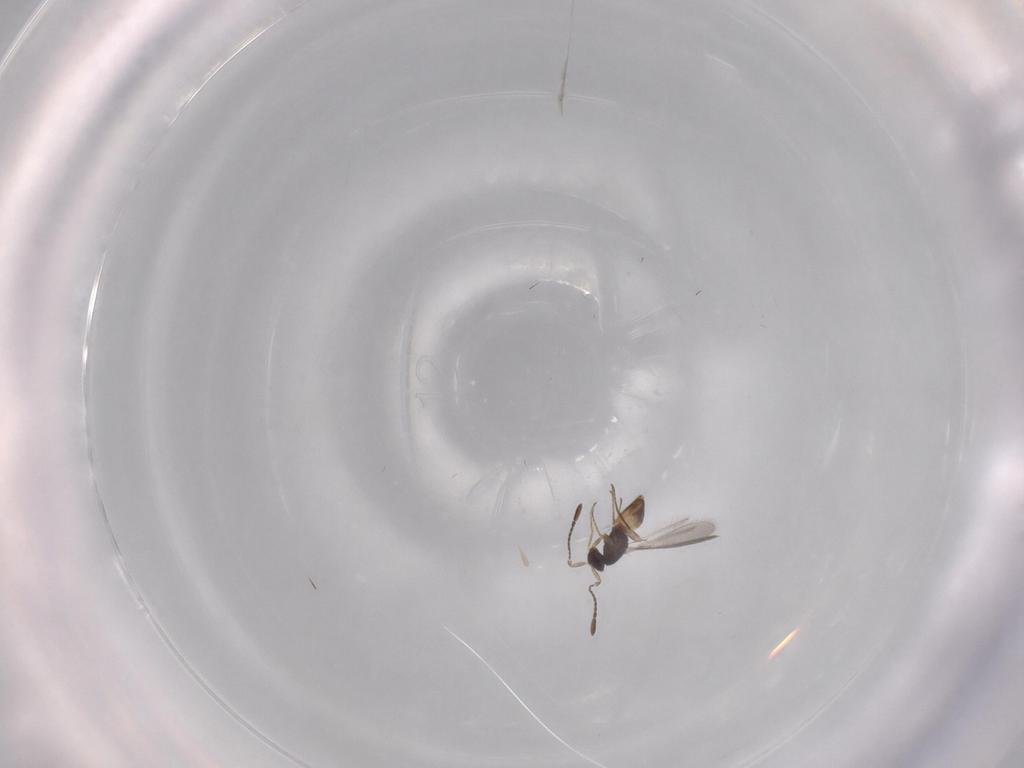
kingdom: Animalia
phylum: Arthropoda
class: Insecta
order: Hymenoptera
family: Mymaridae
